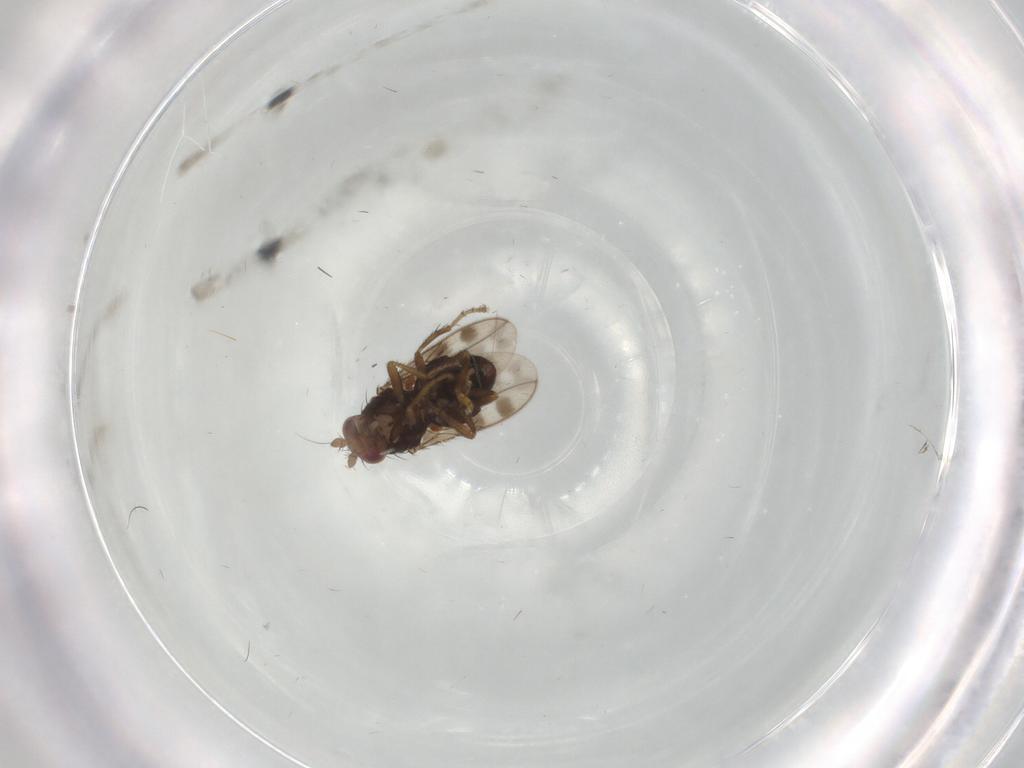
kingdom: Animalia
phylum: Arthropoda
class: Insecta
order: Diptera
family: Sphaeroceridae
